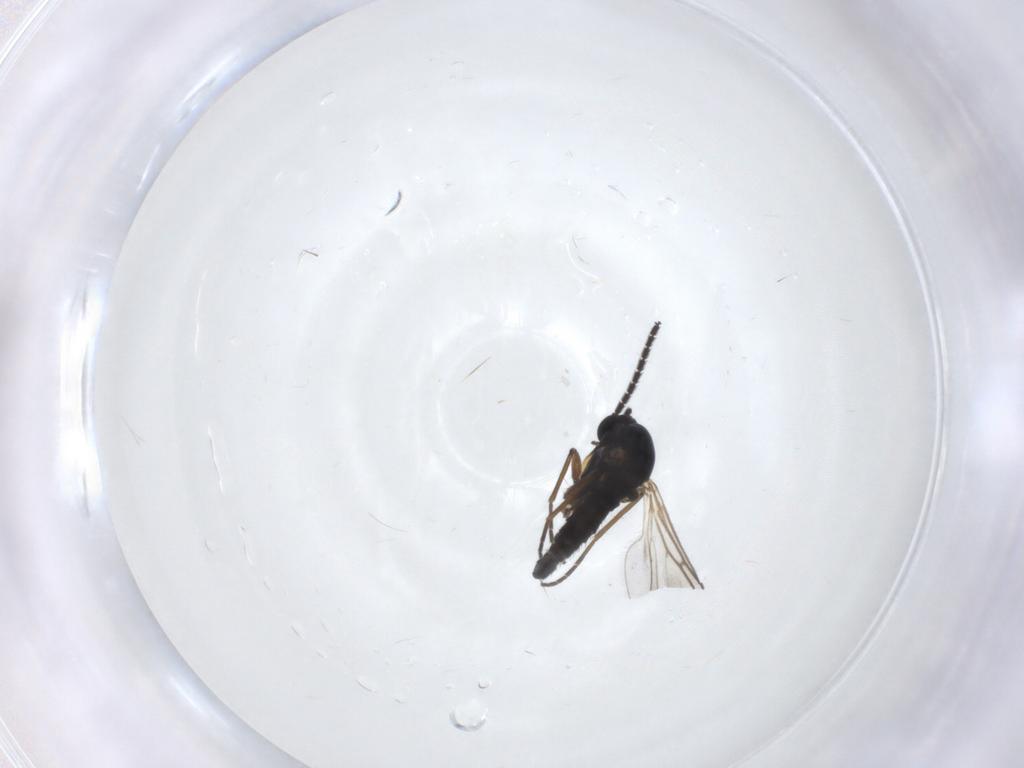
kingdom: Animalia
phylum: Arthropoda
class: Insecta
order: Diptera
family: Sciaridae
